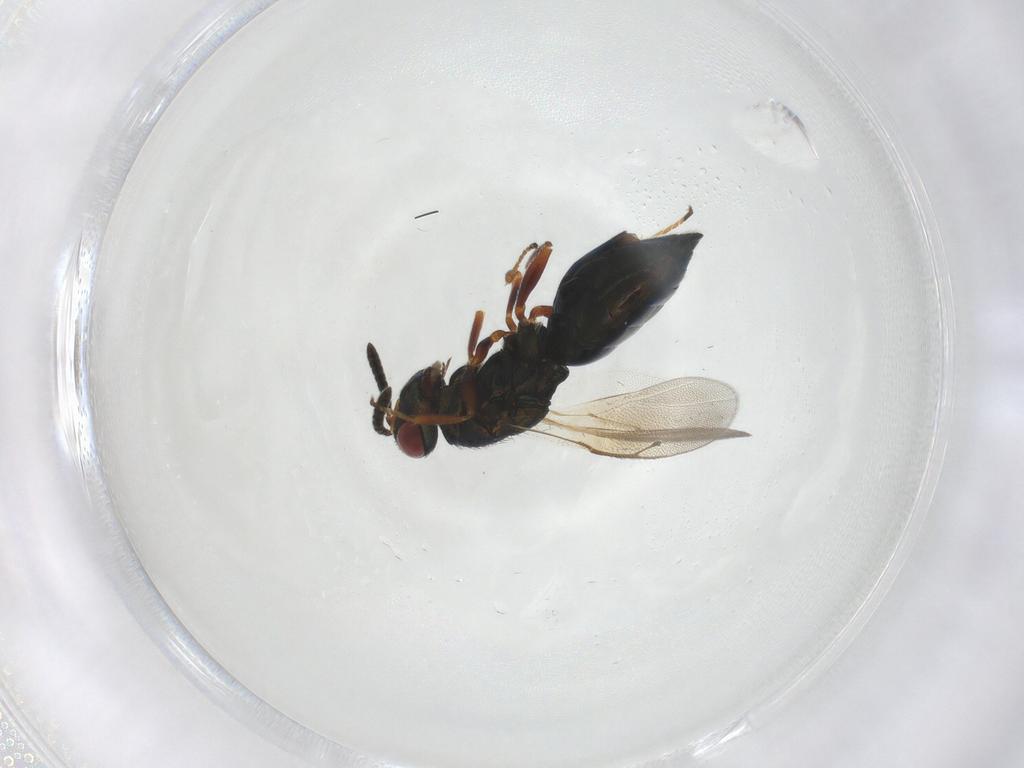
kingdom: Animalia
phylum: Arthropoda
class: Insecta
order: Hymenoptera
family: Pteromalidae
